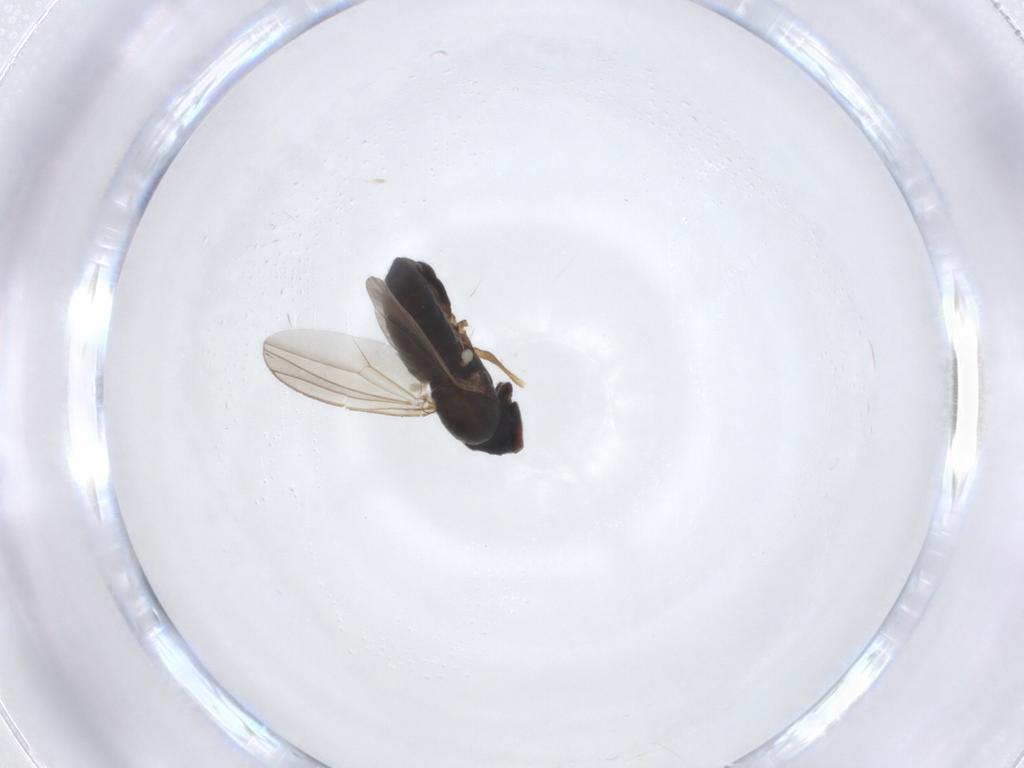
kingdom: Animalia
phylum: Arthropoda
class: Insecta
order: Diptera
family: Dolichopodidae
